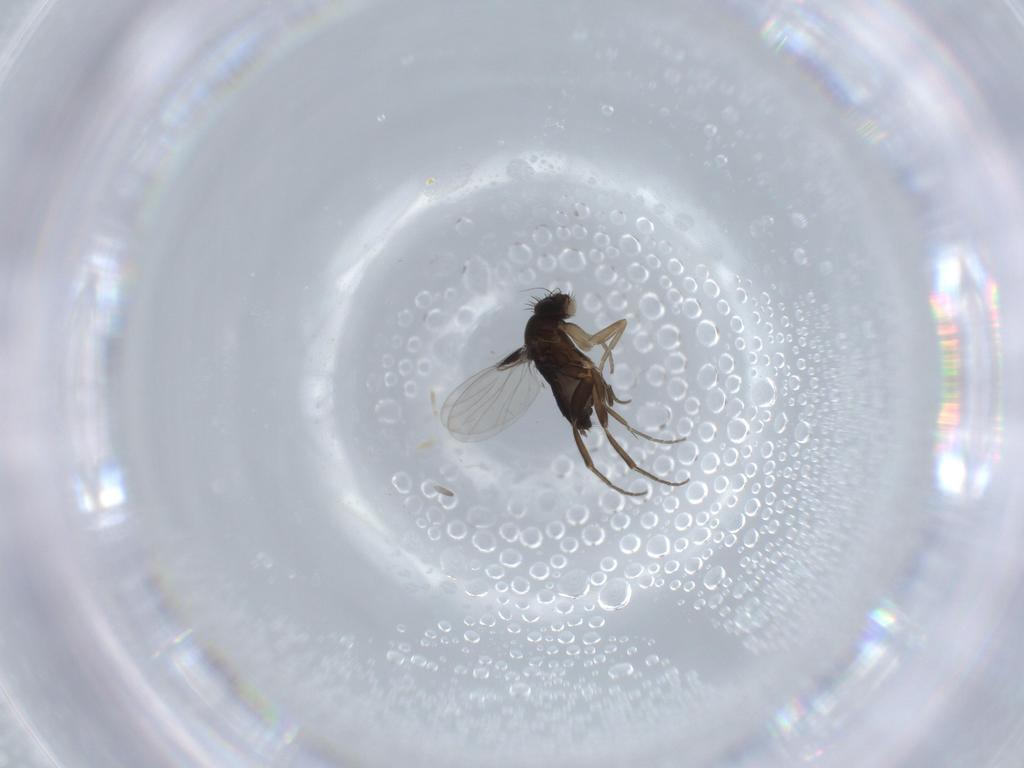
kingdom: Animalia
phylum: Arthropoda
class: Insecta
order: Diptera
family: Phoridae
